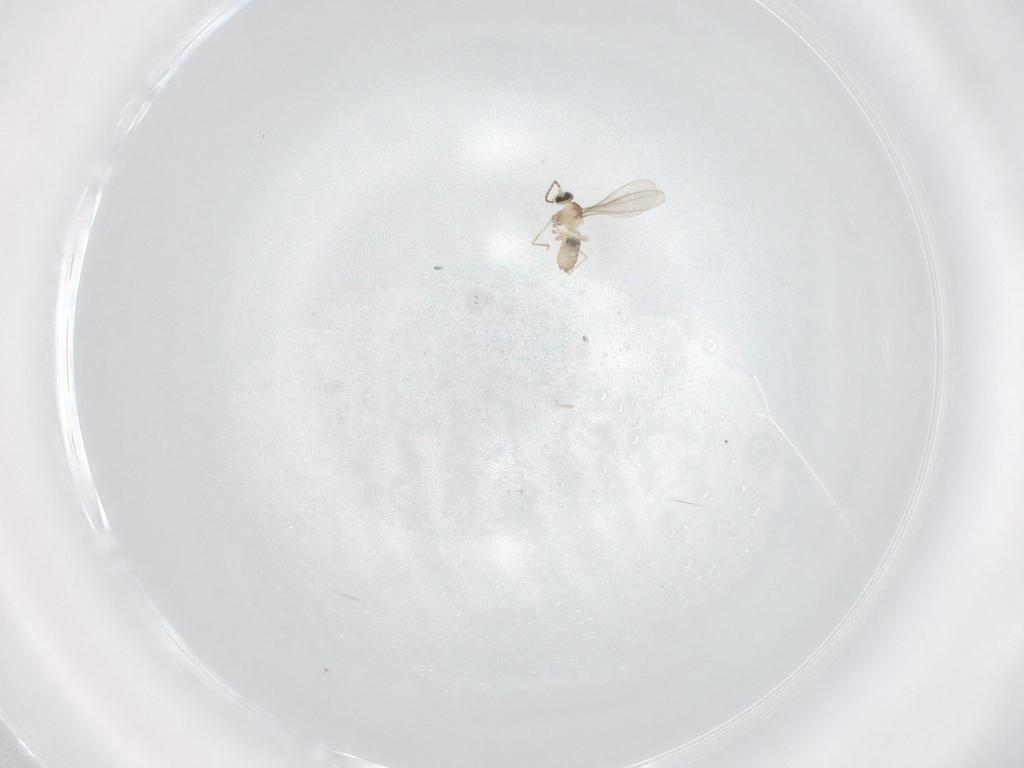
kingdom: Animalia
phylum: Arthropoda
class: Insecta
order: Diptera
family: Cecidomyiidae
